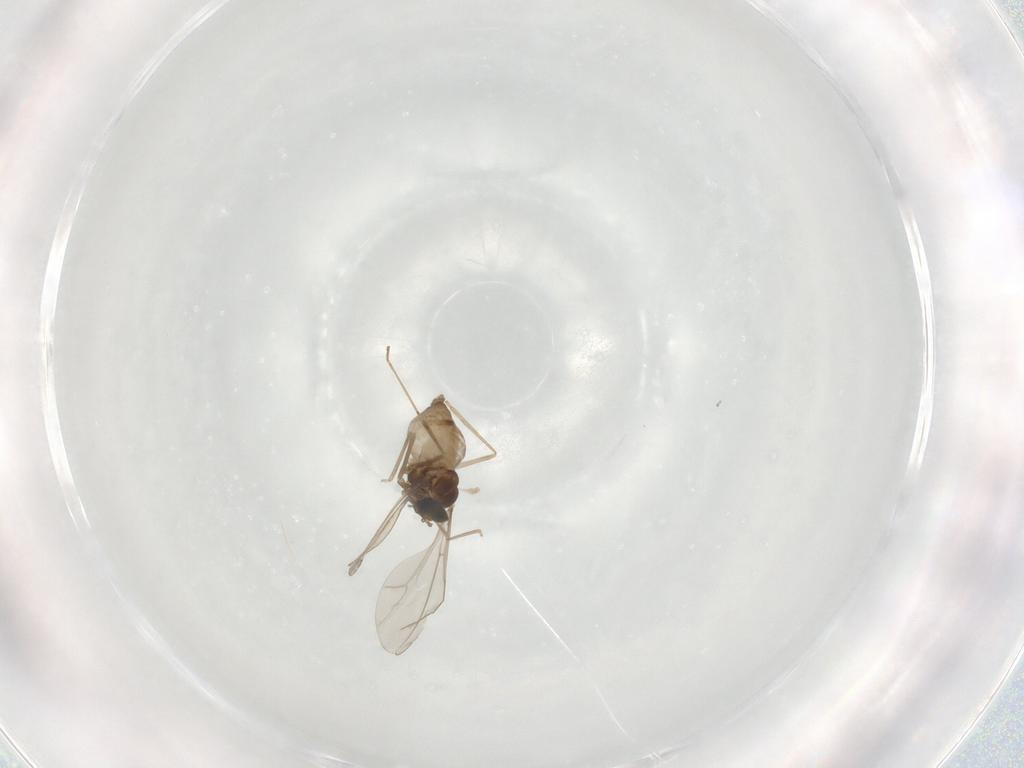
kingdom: Animalia
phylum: Arthropoda
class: Insecta
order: Diptera
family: Cecidomyiidae
